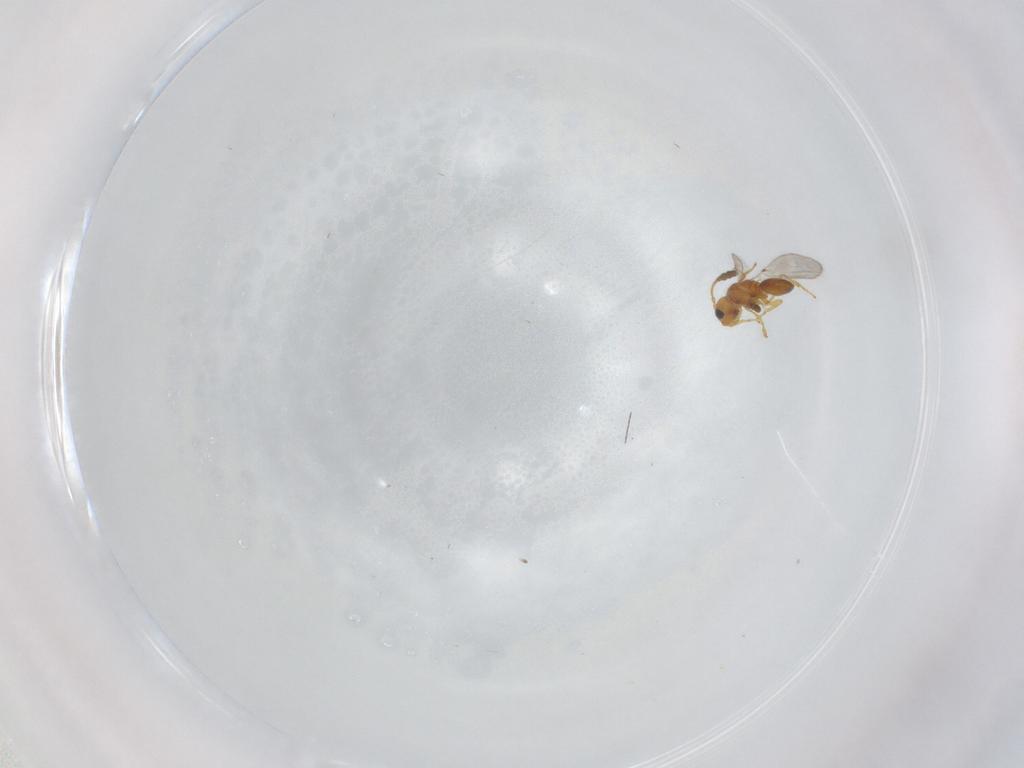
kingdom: Animalia
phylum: Arthropoda
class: Insecta
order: Hymenoptera
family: Diapriidae
